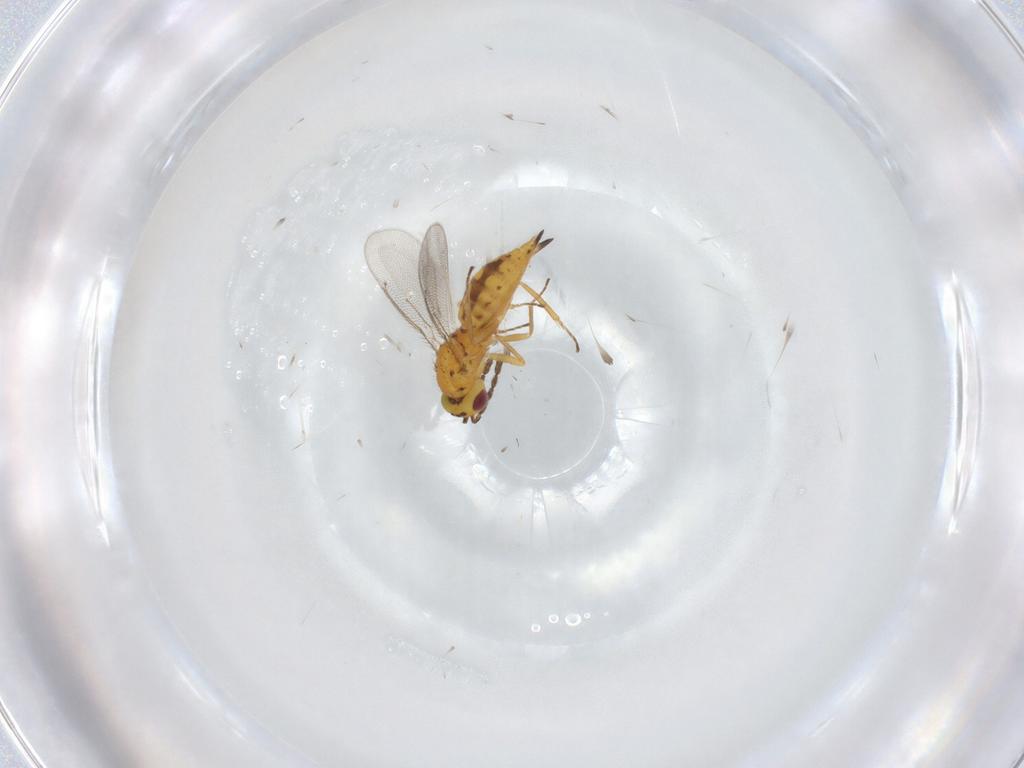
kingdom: Animalia
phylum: Arthropoda
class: Insecta
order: Hymenoptera
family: Eulophidae
